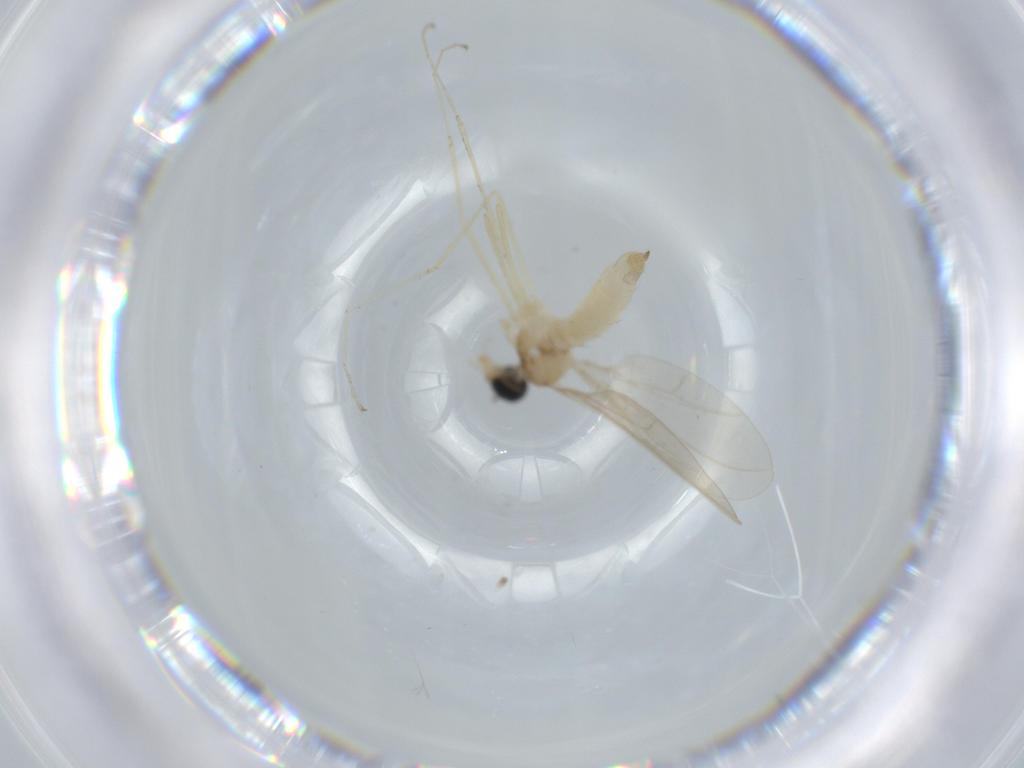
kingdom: Animalia
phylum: Arthropoda
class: Insecta
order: Diptera
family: Cecidomyiidae
